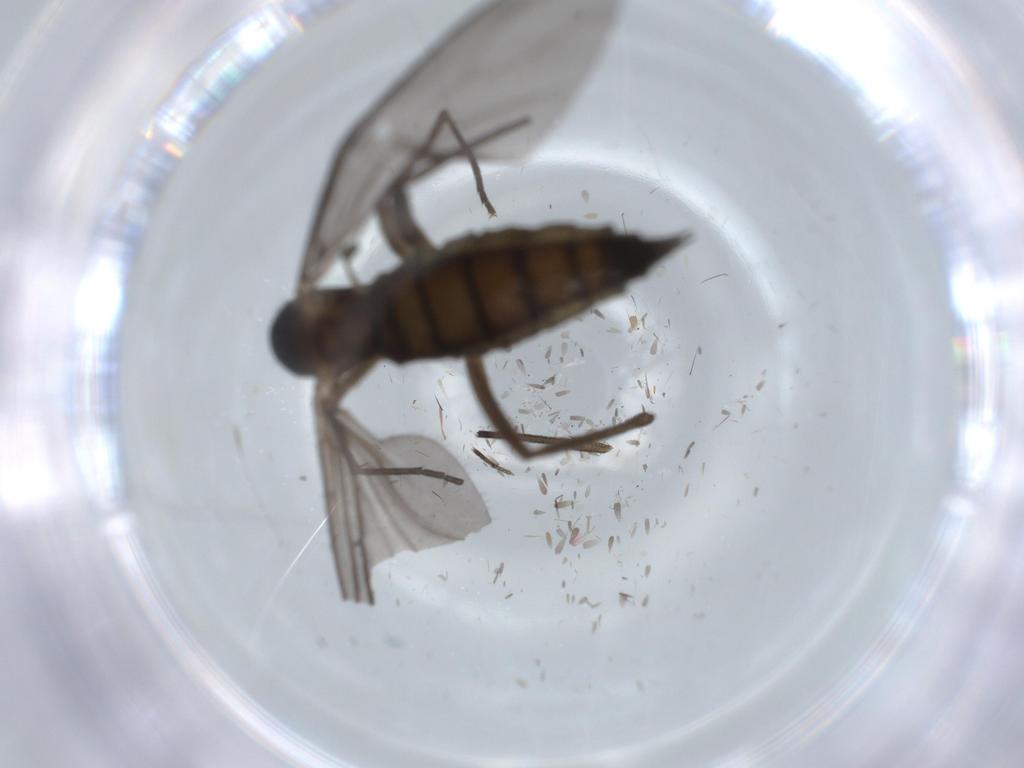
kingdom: Animalia
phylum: Arthropoda
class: Insecta
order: Diptera
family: Sciaridae
